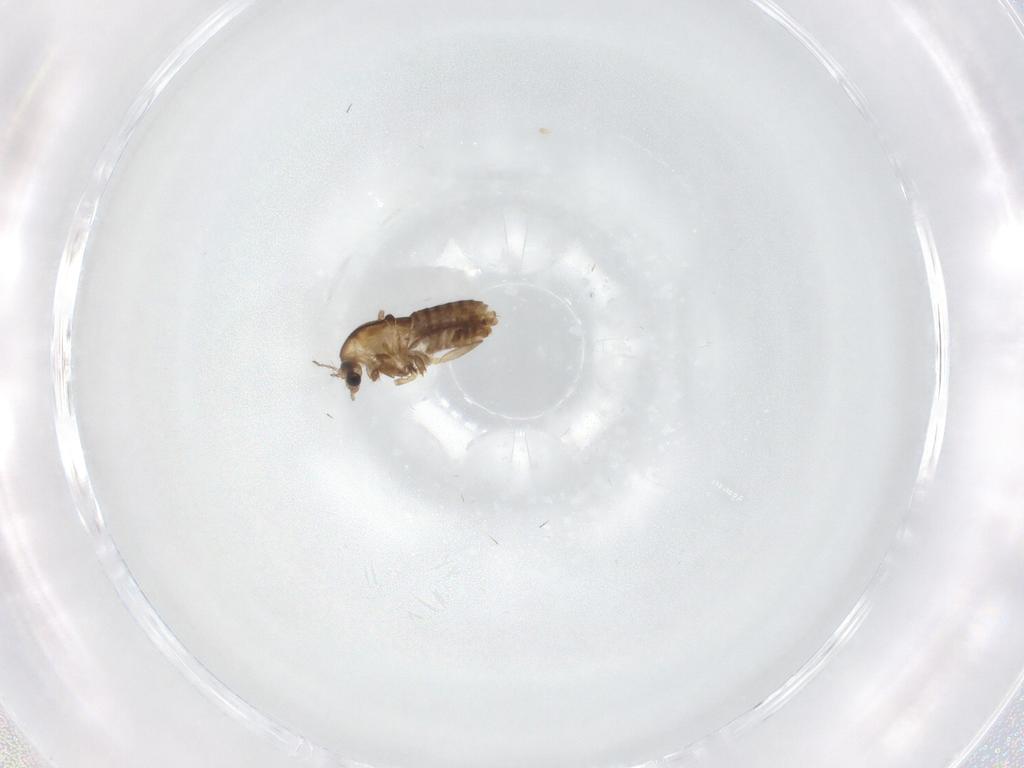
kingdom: Animalia
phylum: Arthropoda
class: Insecta
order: Diptera
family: Chironomidae
